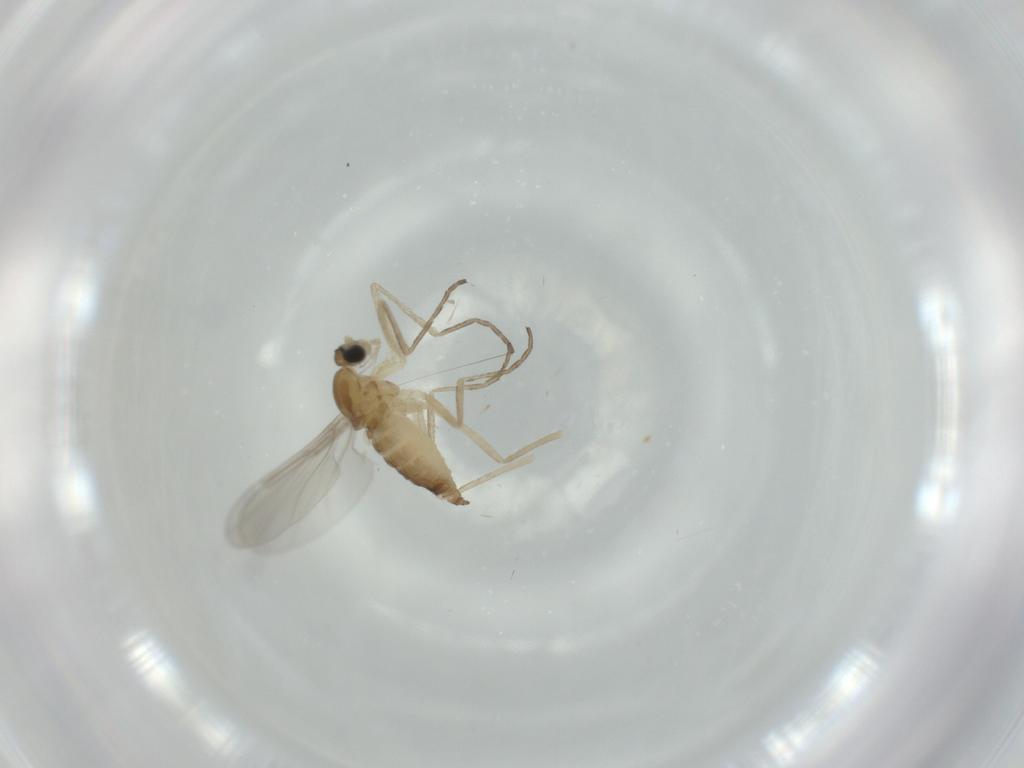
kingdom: Animalia
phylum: Arthropoda
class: Insecta
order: Diptera
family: Cecidomyiidae
